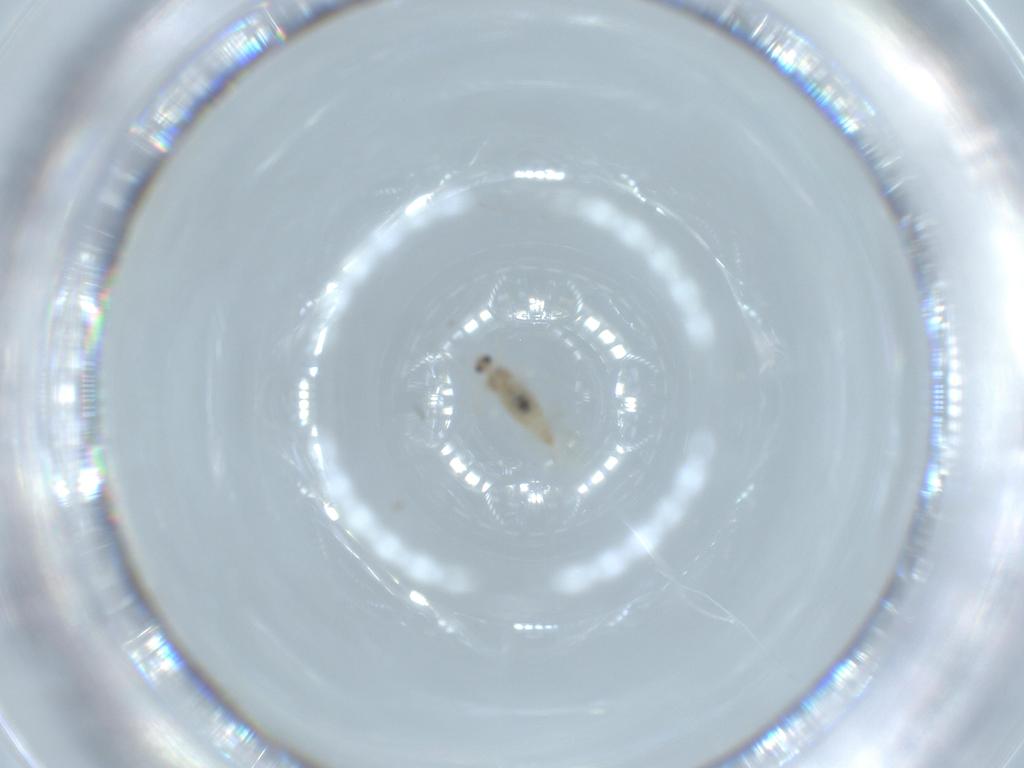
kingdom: Animalia
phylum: Arthropoda
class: Insecta
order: Diptera
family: Cecidomyiidae
